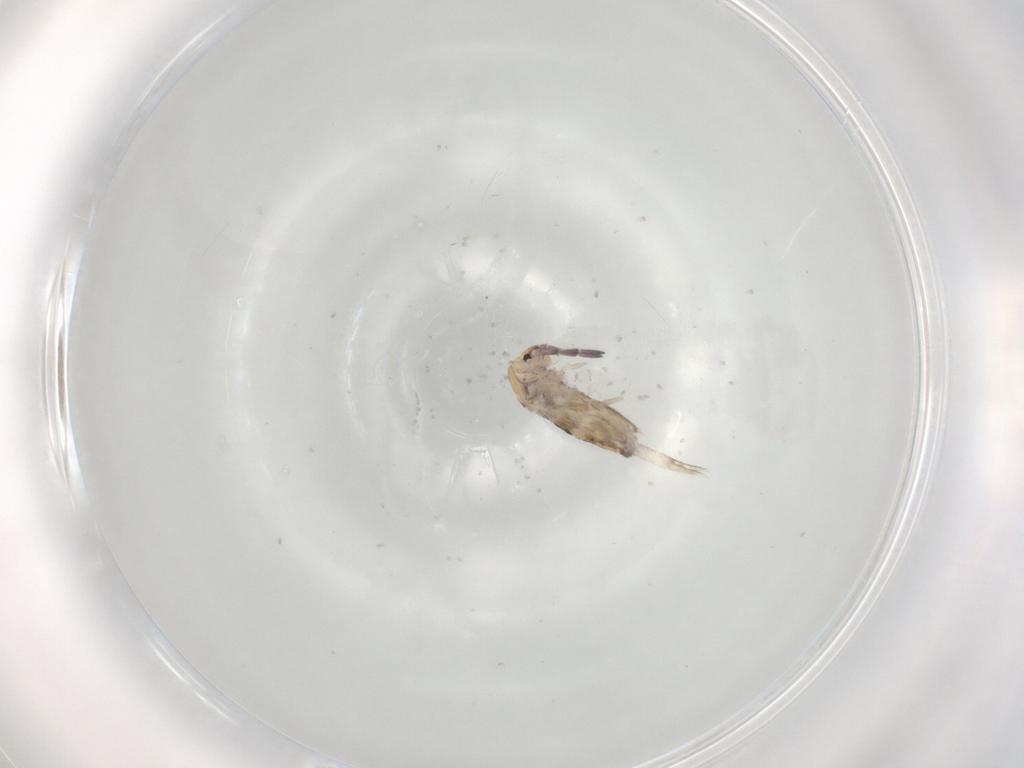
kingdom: Animalia
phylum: Arthropoda
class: Collembola
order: Entomobryomorpha
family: Entomobryidae
